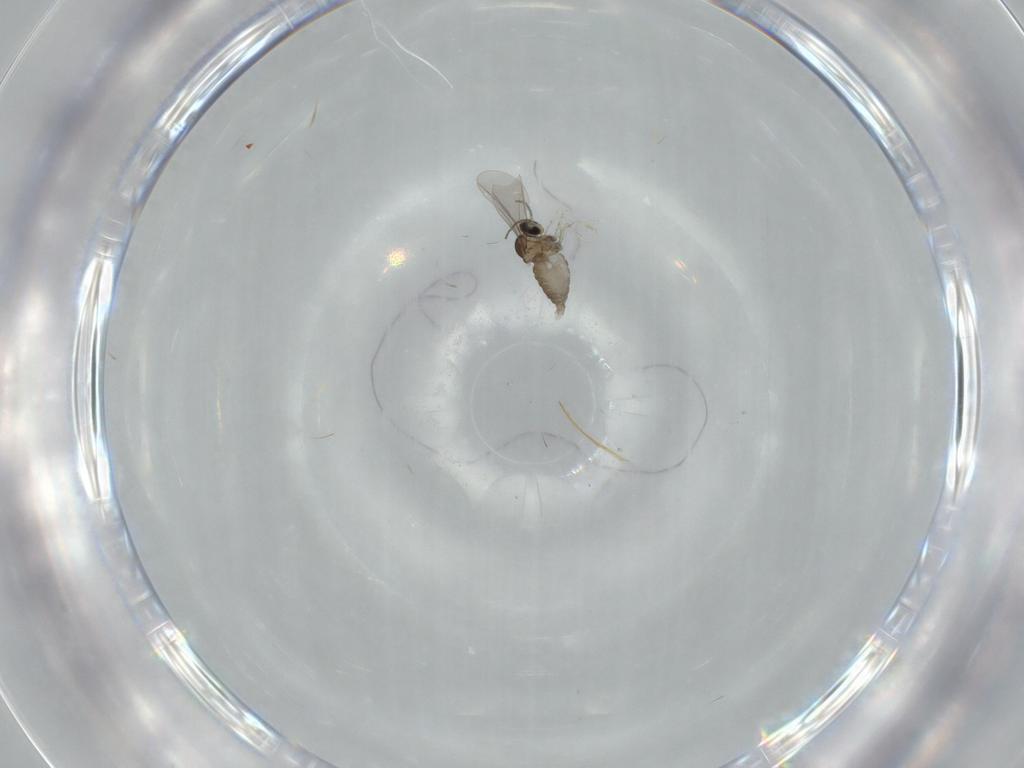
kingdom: Animalia
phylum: Arthropoda
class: Insecta
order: Diptera
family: Cecidomyiidae
